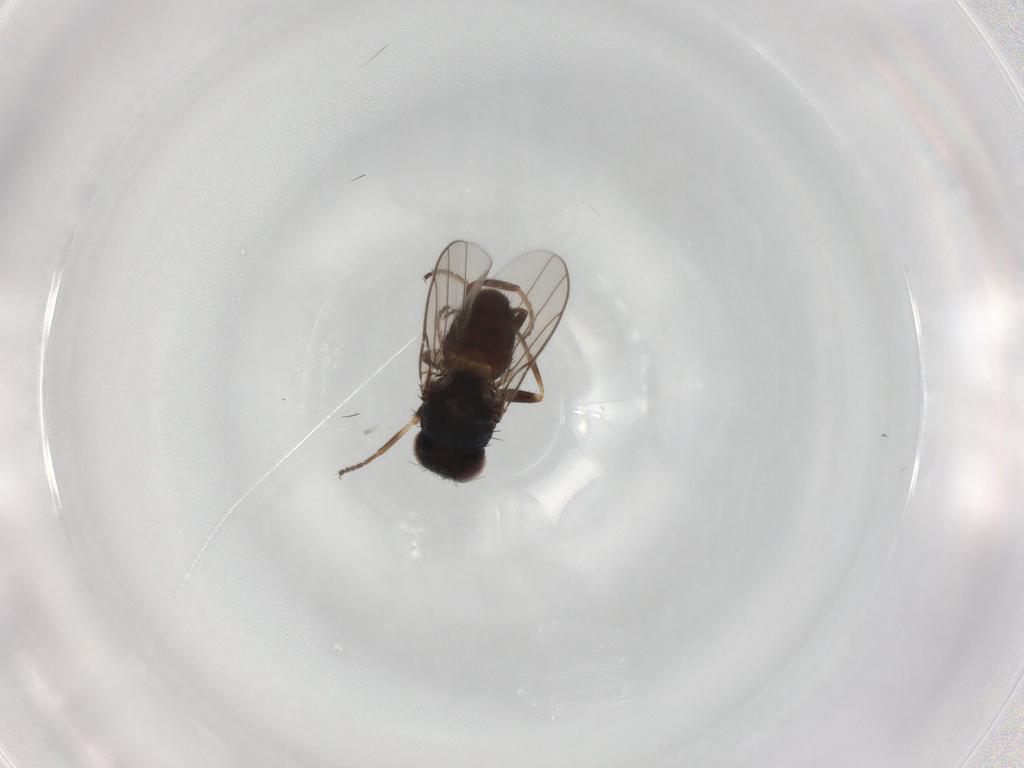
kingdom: Animalia
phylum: Arthropoda
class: Insecta
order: Diptera
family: Chloropidae
